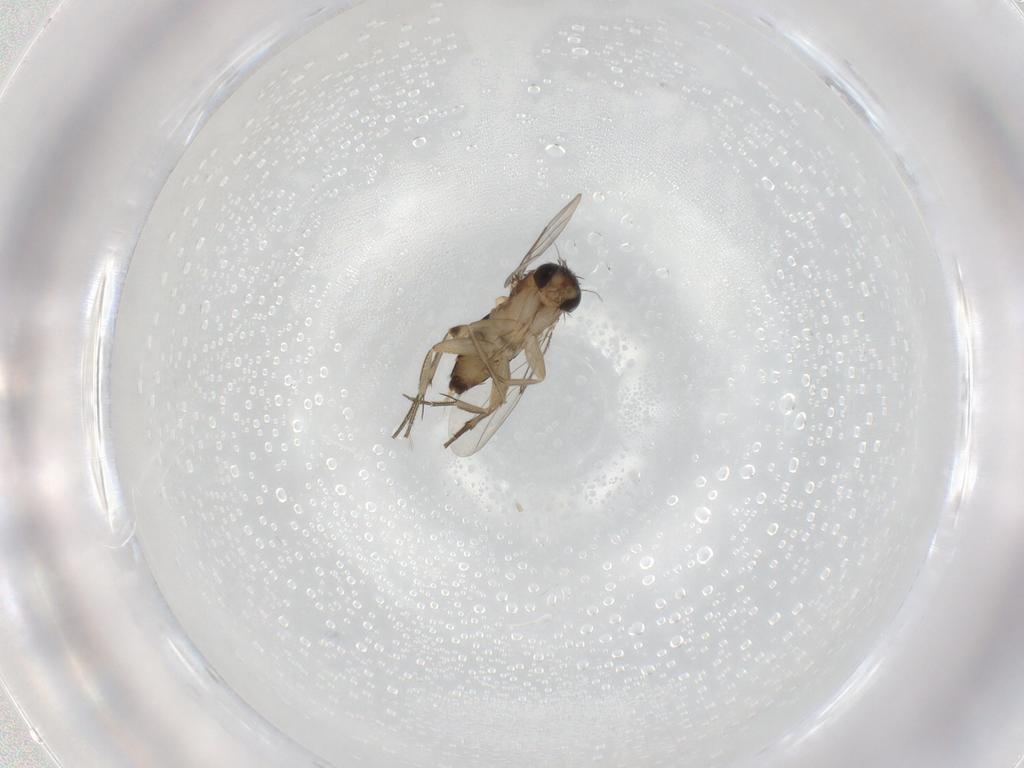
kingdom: Animalia
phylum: Arthropoda
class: Insecta
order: Diptera
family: Phoridae
